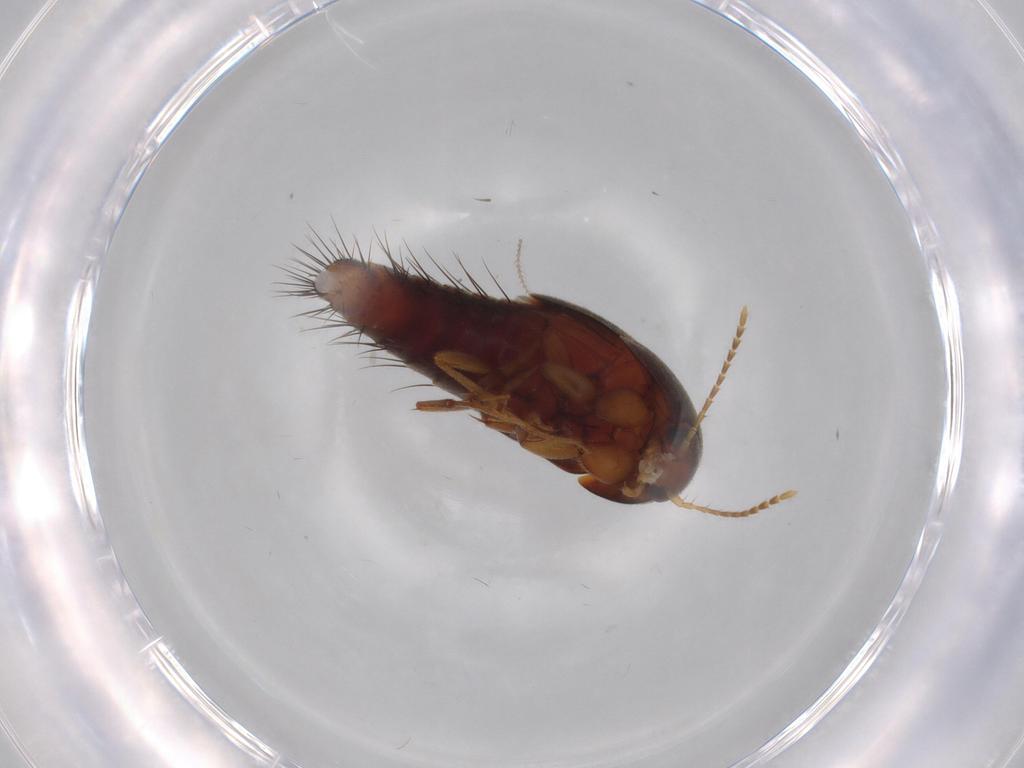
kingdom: Animalia
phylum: Arthropoda
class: Insecta
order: Coleoptera
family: Staphylinidae
